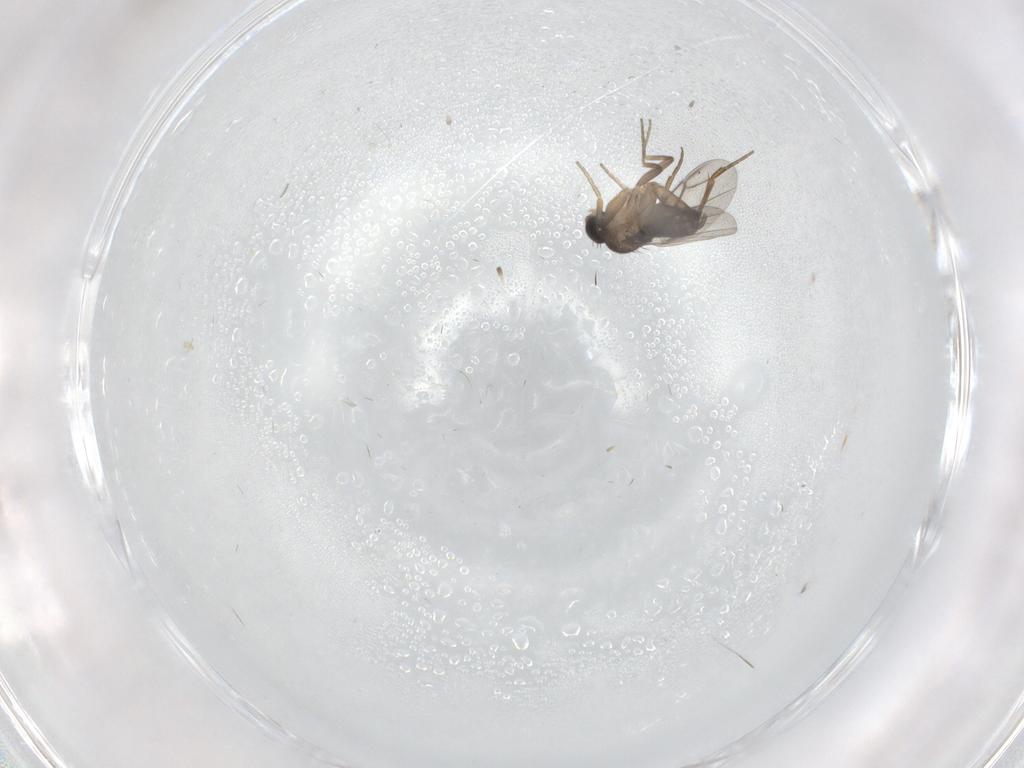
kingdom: Animalia
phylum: Arthropoda
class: Insecta
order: Diptera
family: Phoridae
